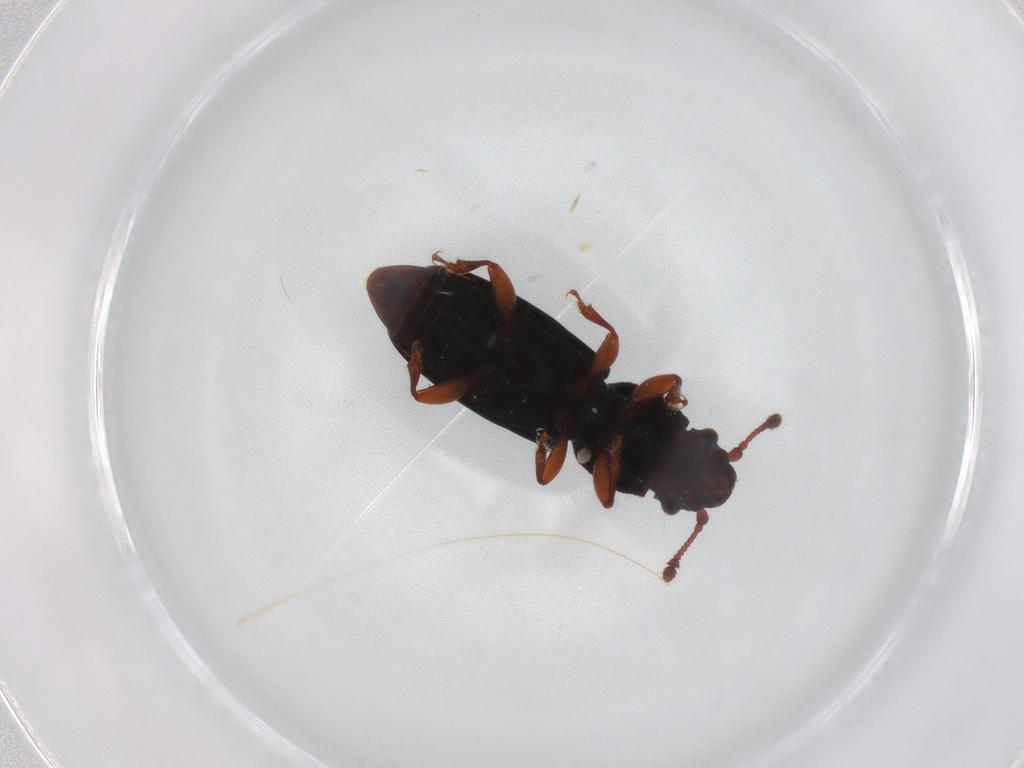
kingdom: Animalia
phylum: Arthropoda
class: Insecta
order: Coleoptera
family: Monotomidae
